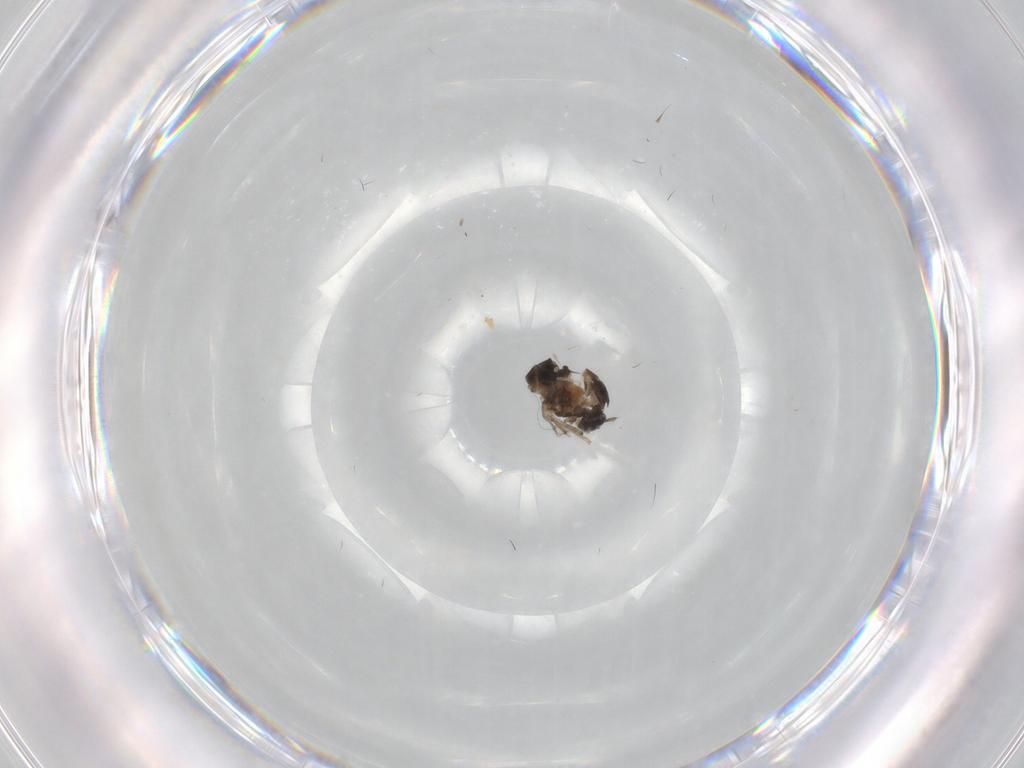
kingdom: Animalia
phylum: Arthropoda
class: Insecta
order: Diptera
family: Ceratopogonidae
